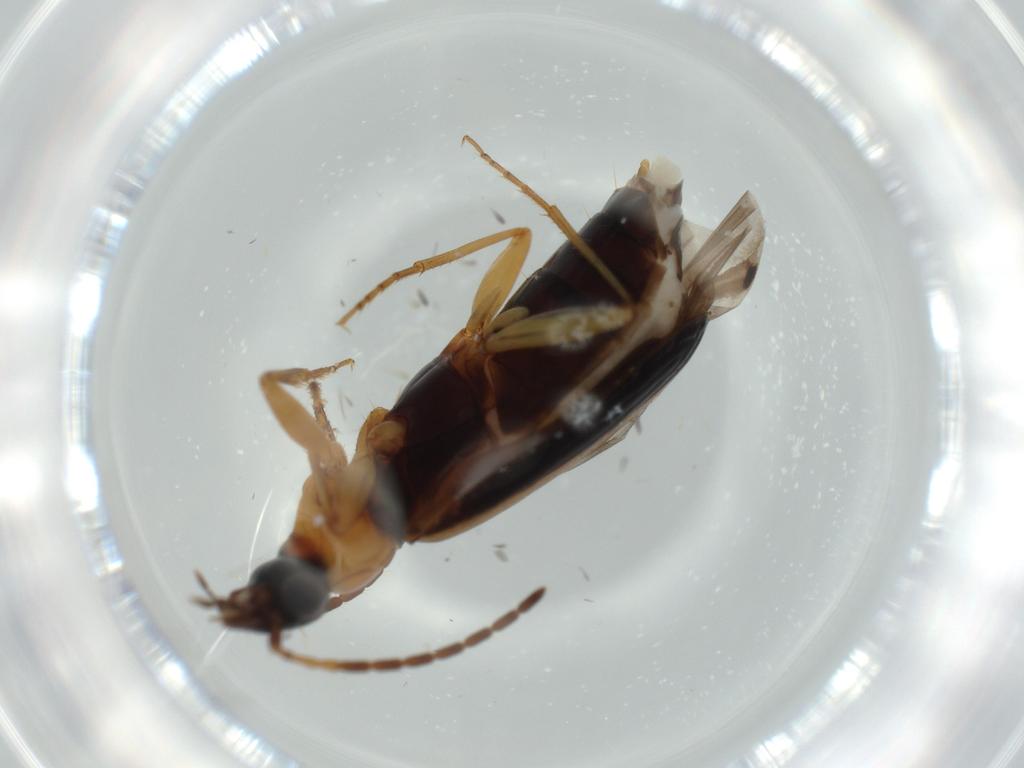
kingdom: Animalia
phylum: Arthropoda
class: Insecta
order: Coleoptera
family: Carabidae
